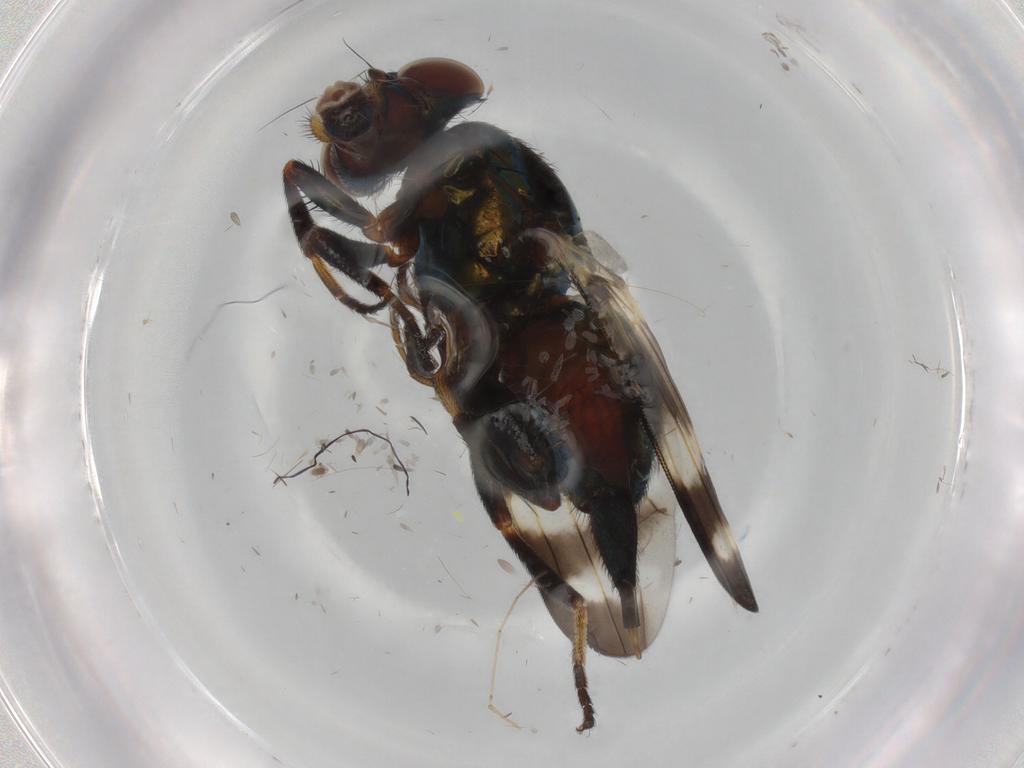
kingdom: Animalia
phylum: Arthropoda
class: Insecta
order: Diptera
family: Ulidiidae
